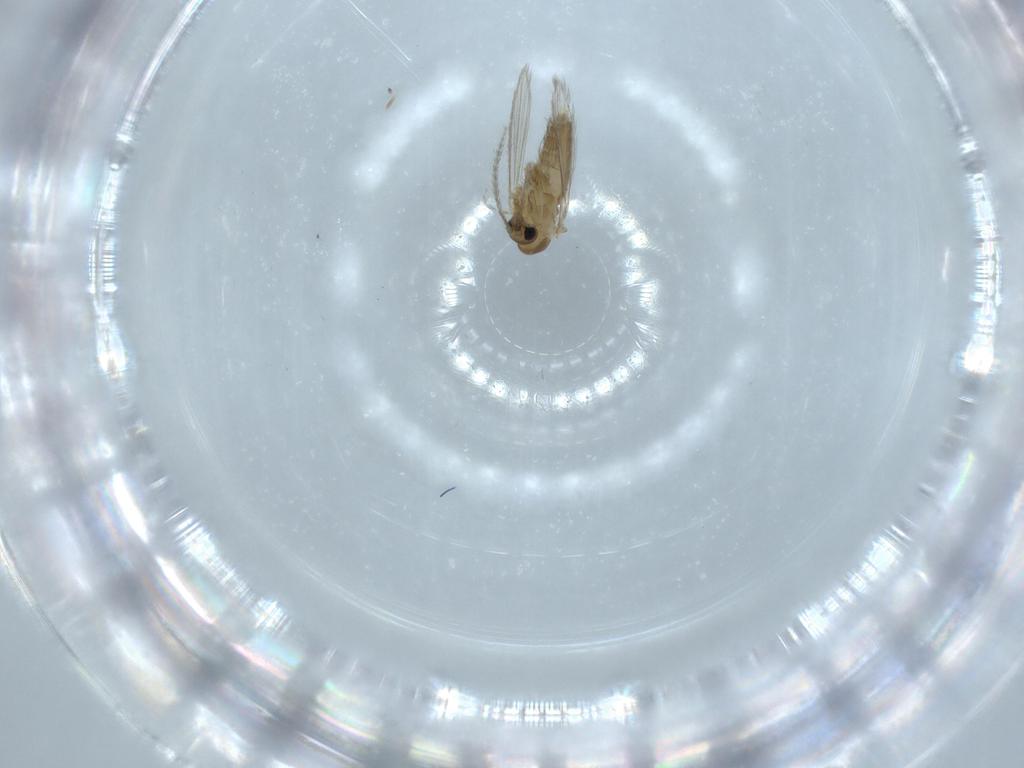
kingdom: Animalia
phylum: Arthropoda
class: Insecta
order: Diptera
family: Psychodidae
